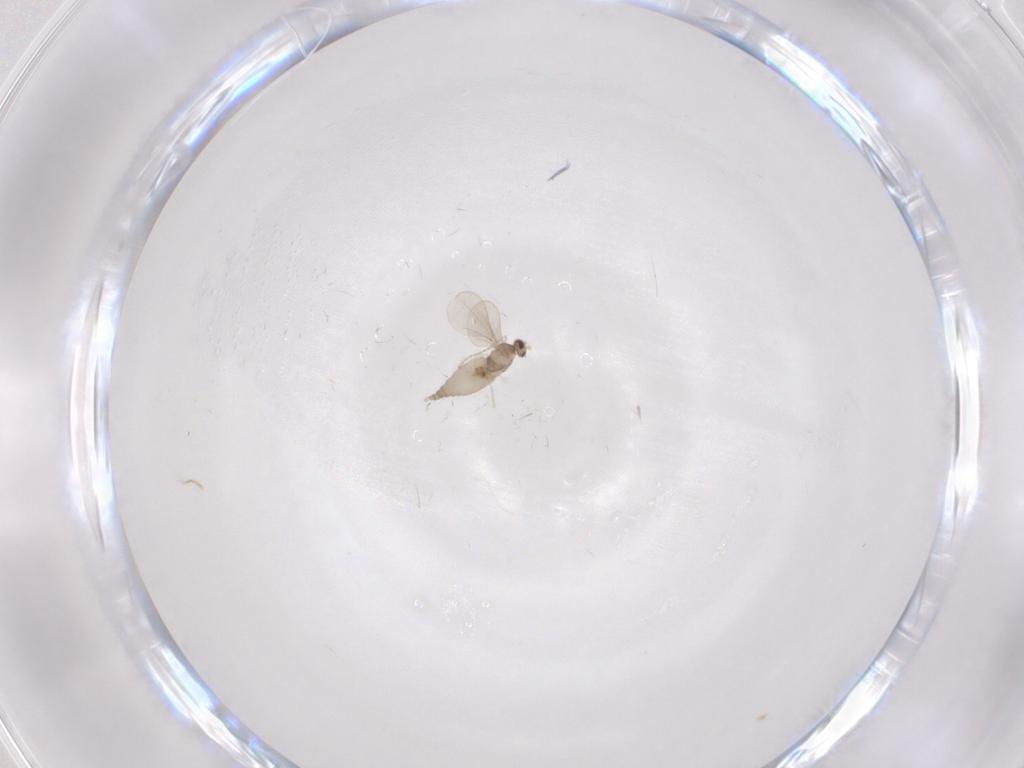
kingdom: Animalia
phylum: Arthropoda
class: Insecta
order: Diptera
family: Cecidomyiidae
